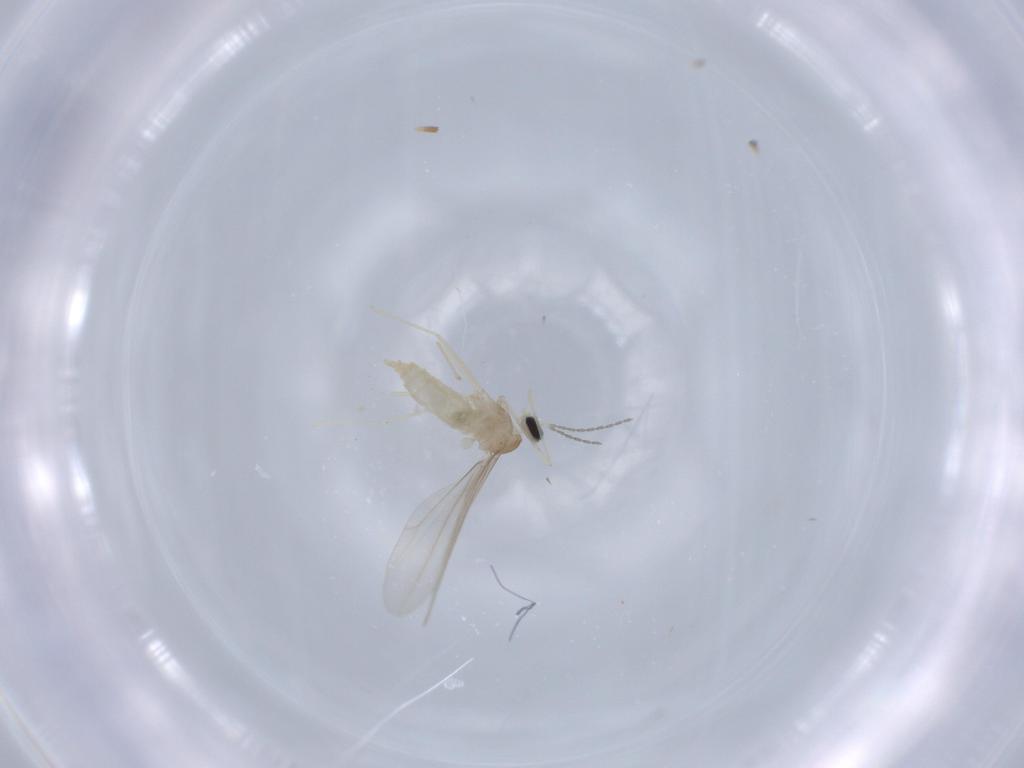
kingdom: Animalia
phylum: Arthropoda
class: Insecta
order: Diptera
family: Cecidomyiidae
